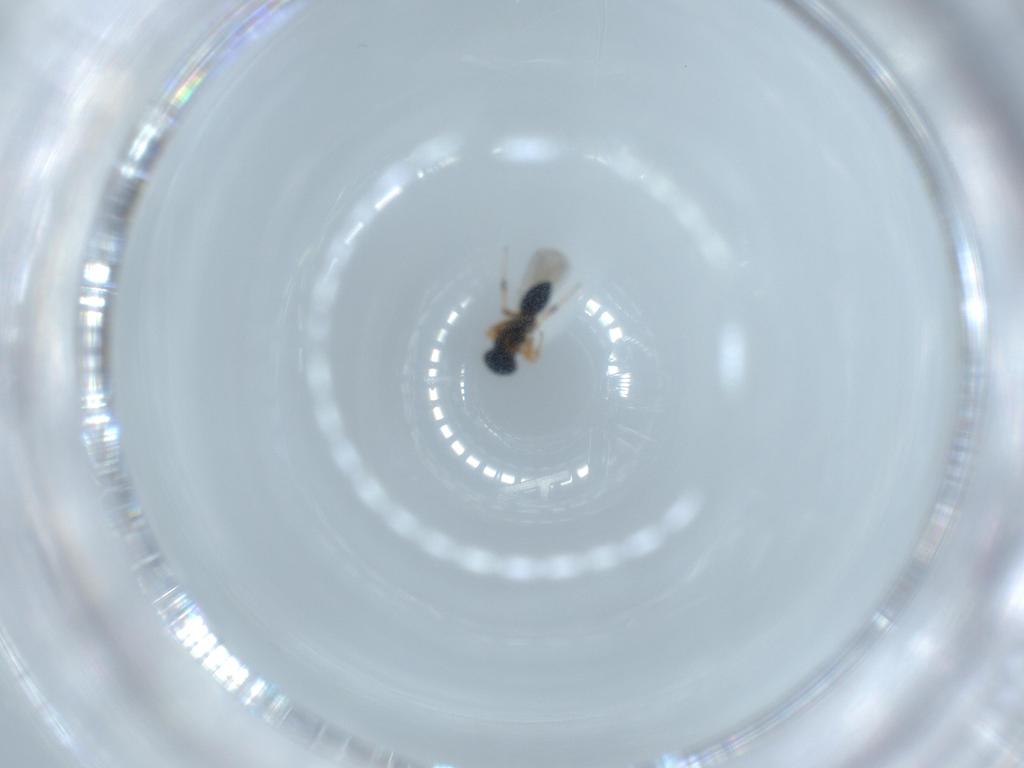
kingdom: Animalia
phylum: Arthropoda
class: Insecta
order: Hymenoptera
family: Platygastridae
